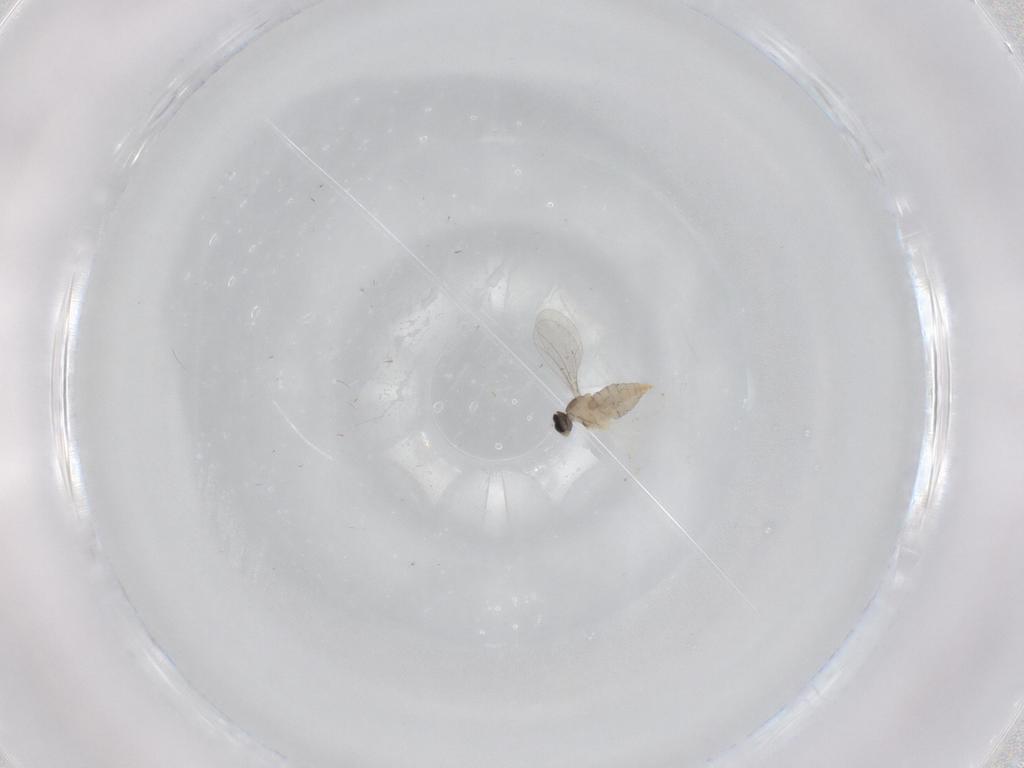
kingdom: Animalia
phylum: Arthropoda
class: Insecta
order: Diptera
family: Cecidomyiidae
